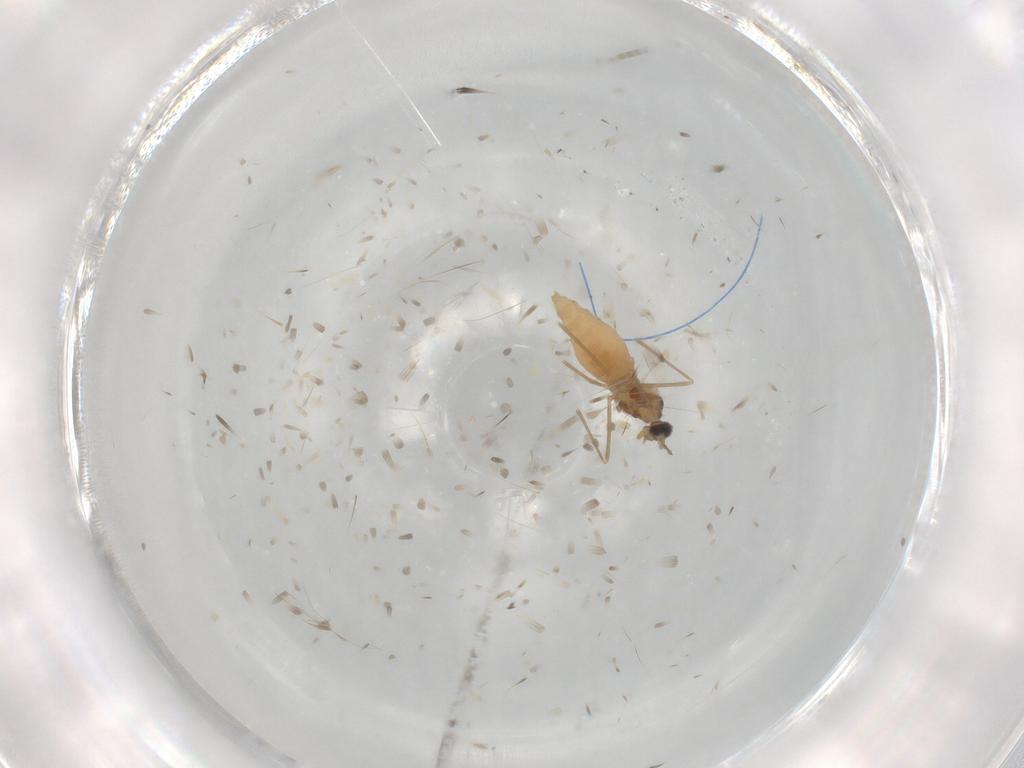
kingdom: Animalia
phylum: Arthropoda
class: Insecta
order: Diptera
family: Cecidomyiidae
